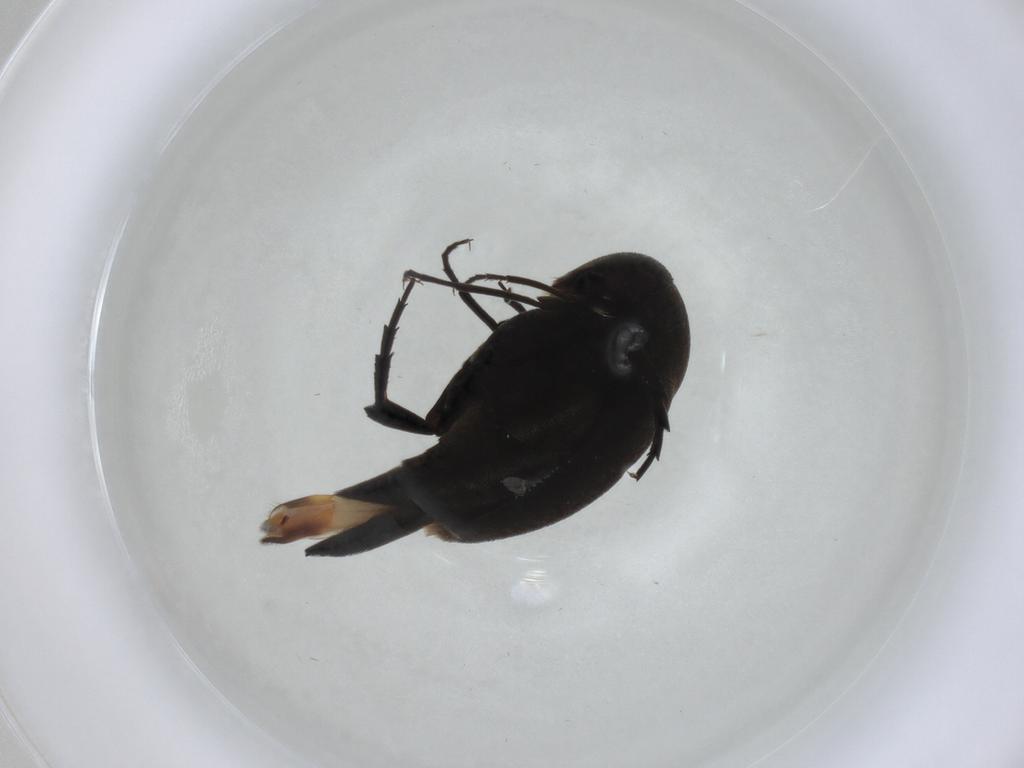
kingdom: Animalia
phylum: Arthropoda
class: Insecta
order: Coleoptera
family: Mordellidae
